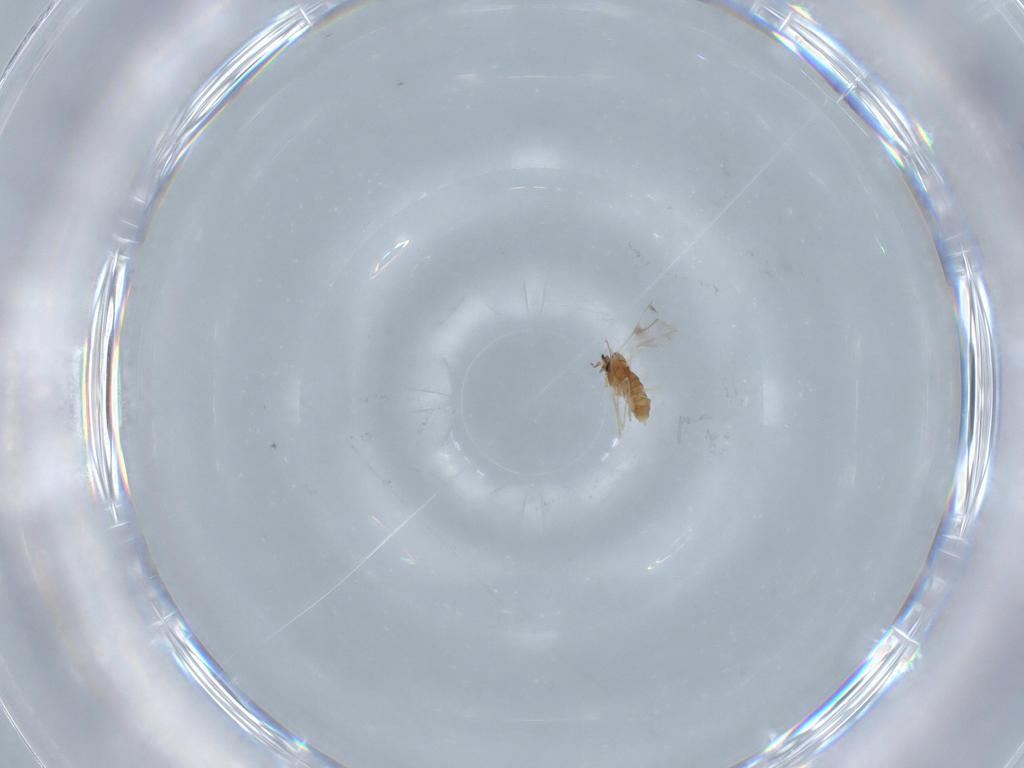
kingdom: Animalia
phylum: Arthropoda
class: Insecta
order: Diptera
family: Cecidomyiidae
